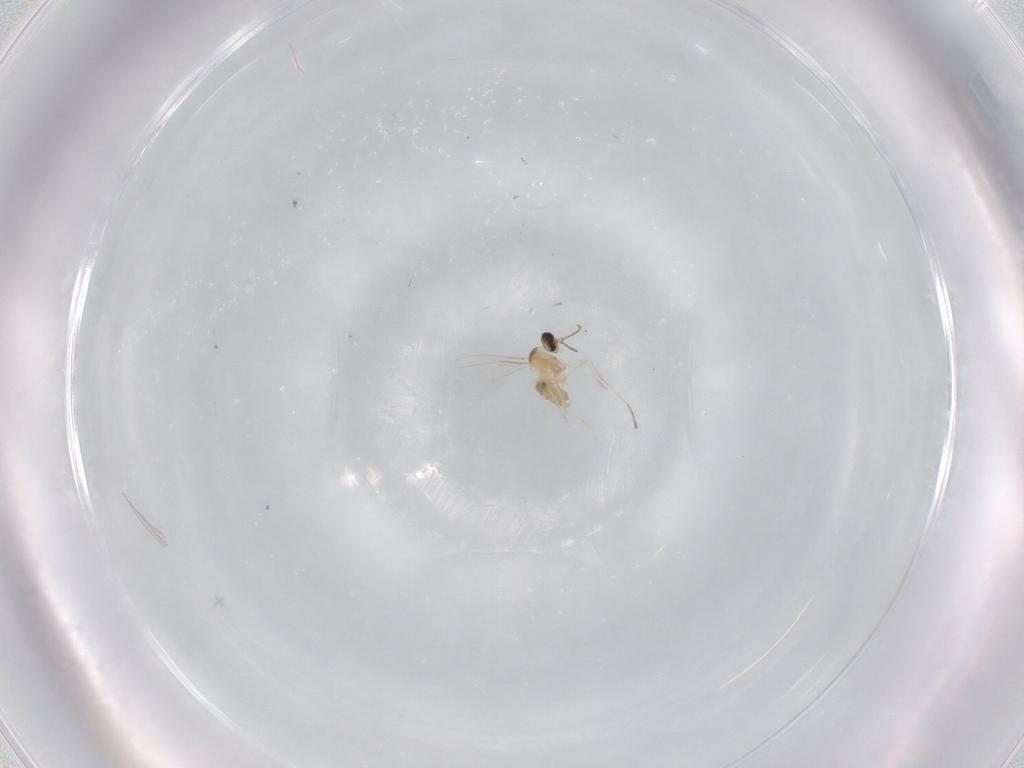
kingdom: Animalia
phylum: Arthropoda
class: Insecta
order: Diptera
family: Cecidomyiidae
